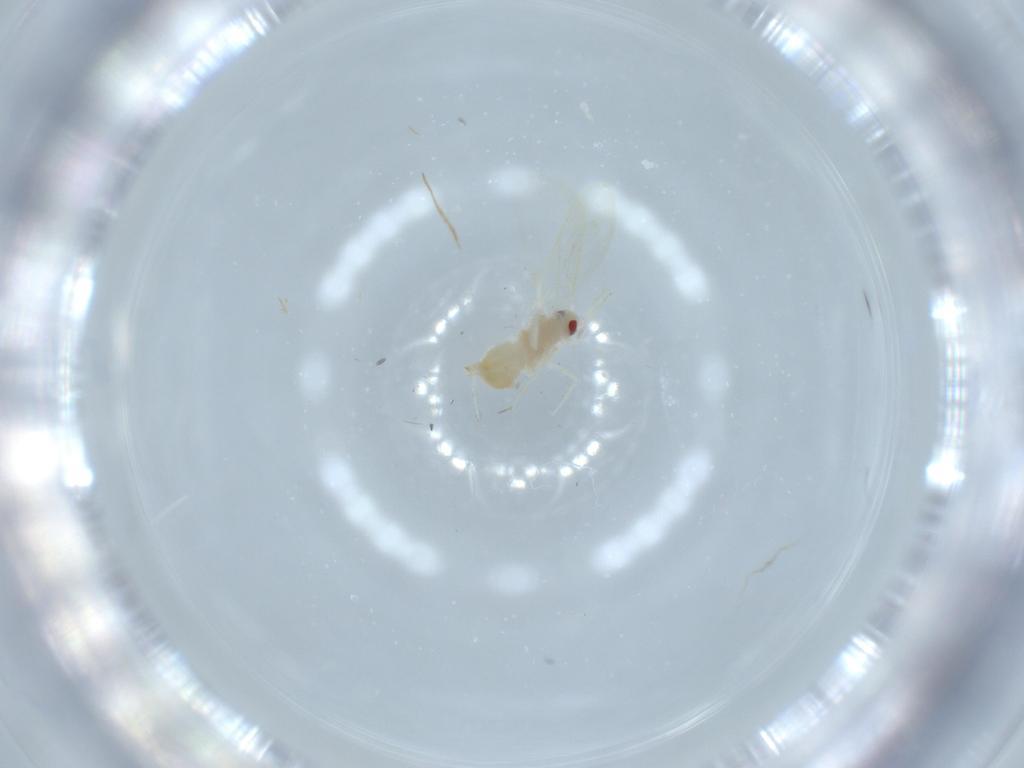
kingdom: Animalia
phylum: Arthropoda
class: Insecta
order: Hemiptera
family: Aleyrodidae
